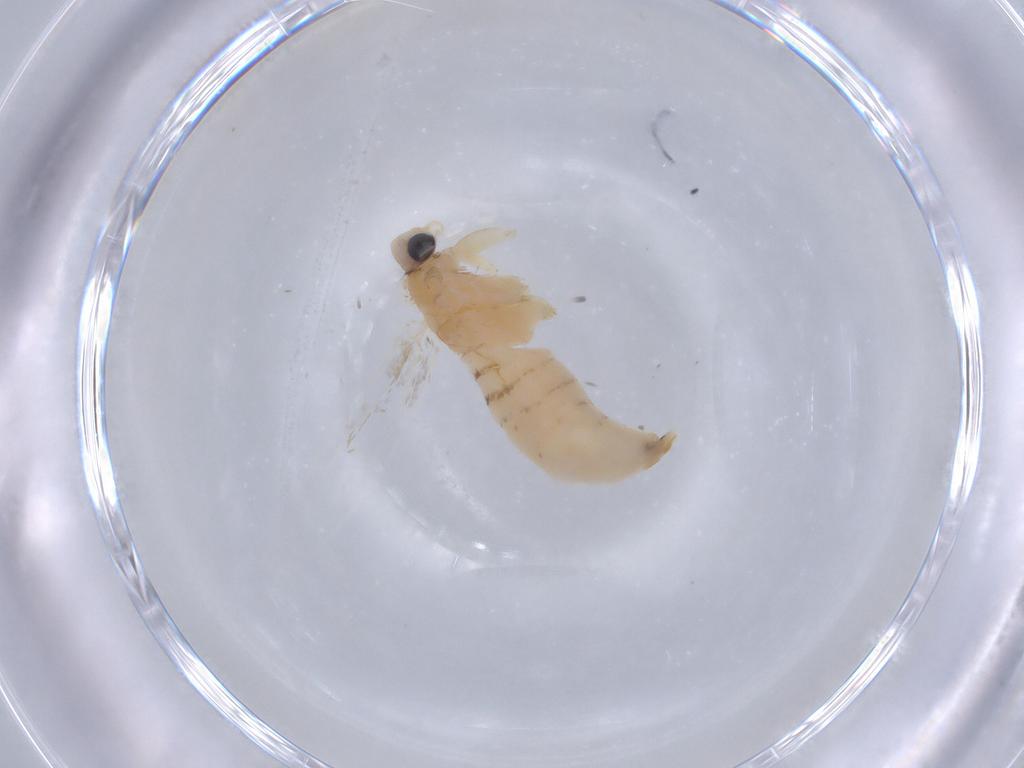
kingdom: Animalia
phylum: Arthropoda
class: Insecta
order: Lepidoptera
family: Tineidae
